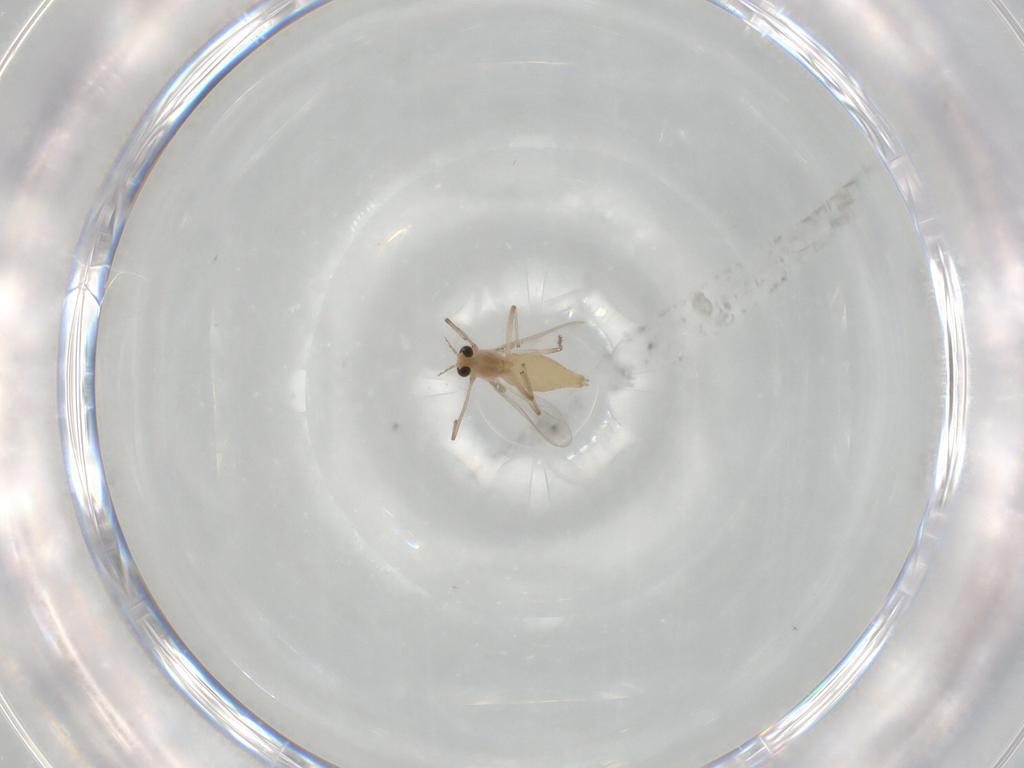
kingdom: Animalia
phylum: Arthropoda
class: Insecta
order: Diptera
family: Chironomidae
